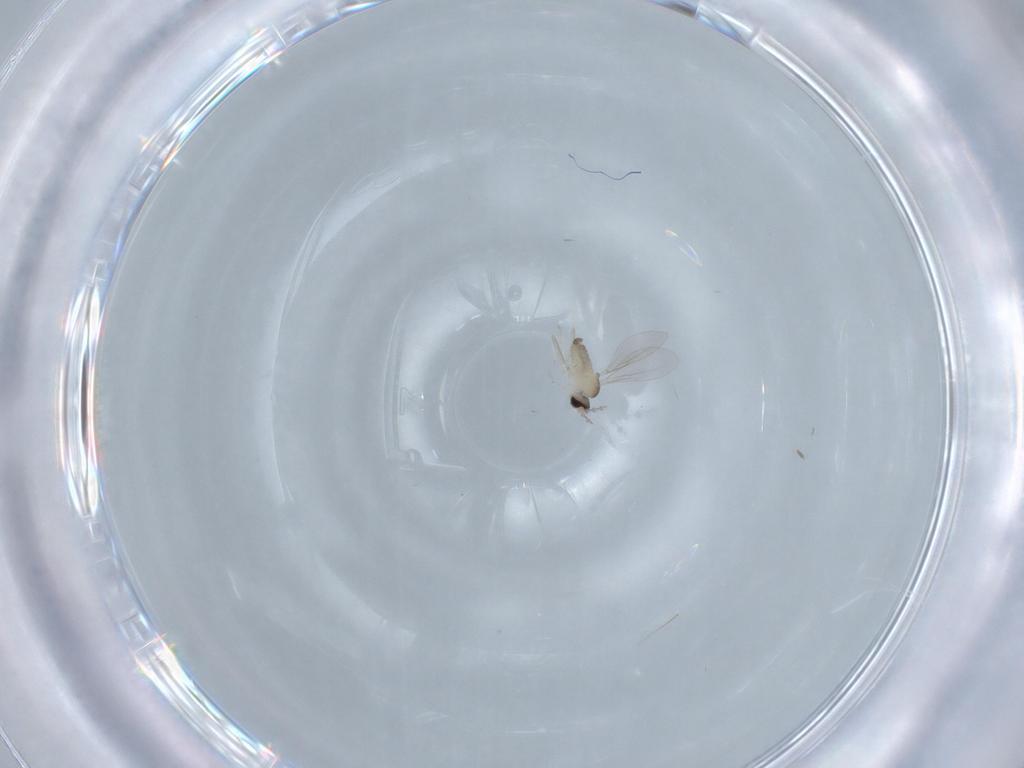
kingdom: Animalia
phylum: Arthropoda
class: Insecta
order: Diptera
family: Cecidomyiidae
